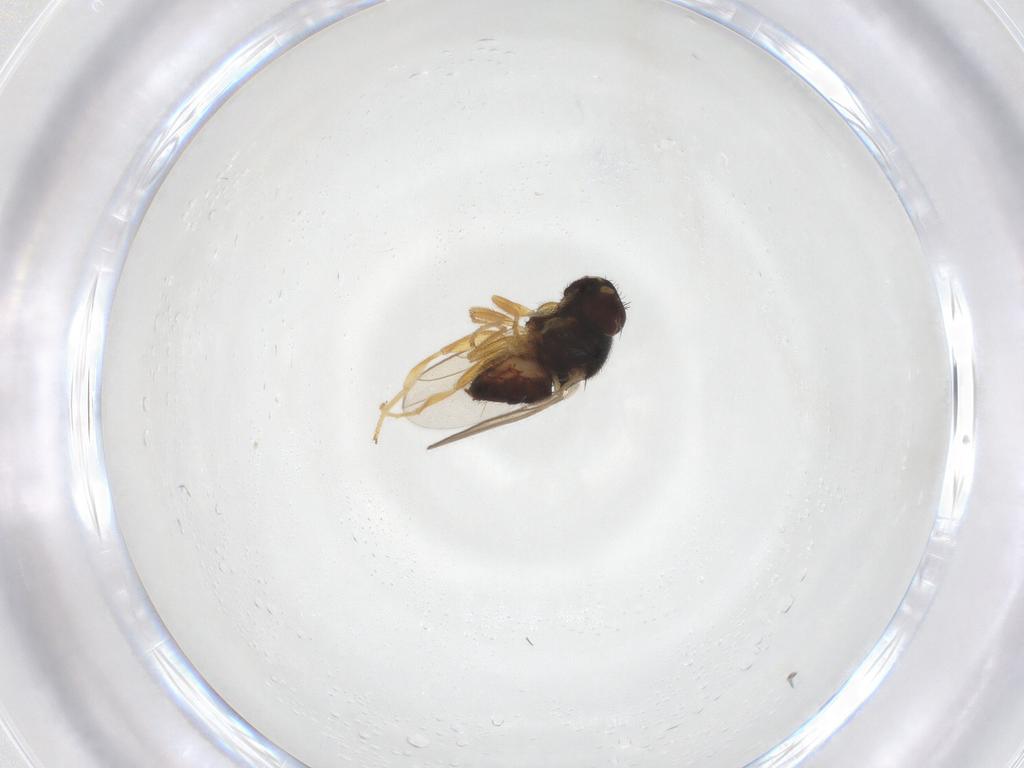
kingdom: Animalia
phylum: Arthropoda
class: Insecta
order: Diptera
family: Chloropidae
